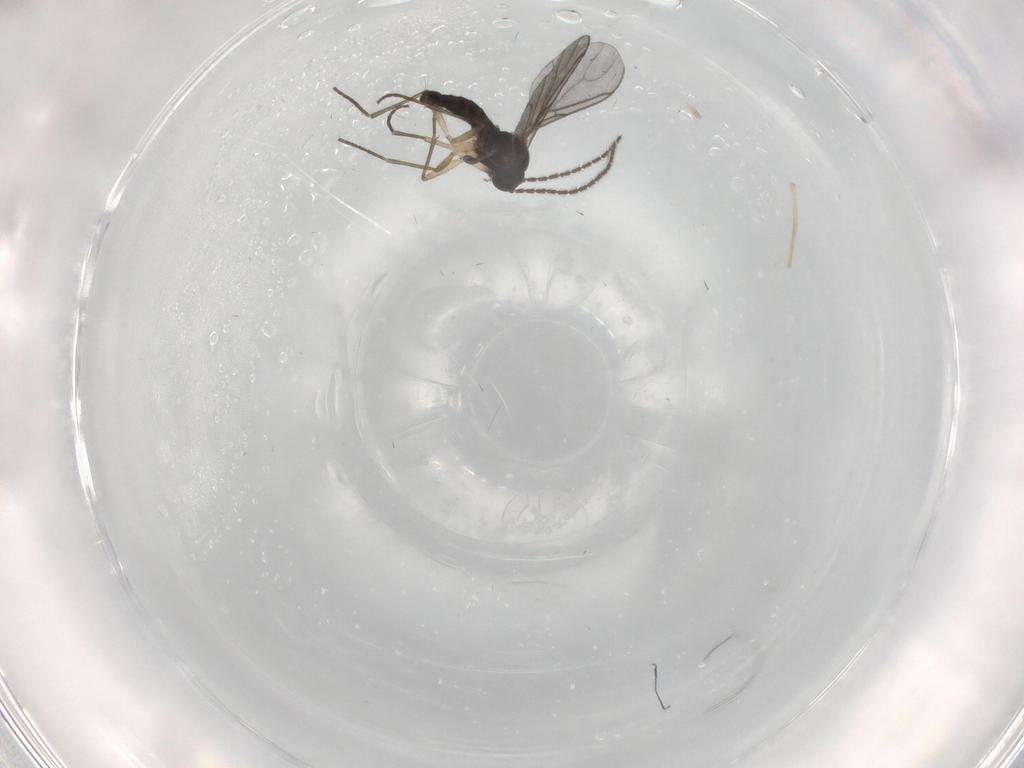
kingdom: Animalia
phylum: Arthropoda
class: Insecta
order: Diptera
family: Sciaridae
